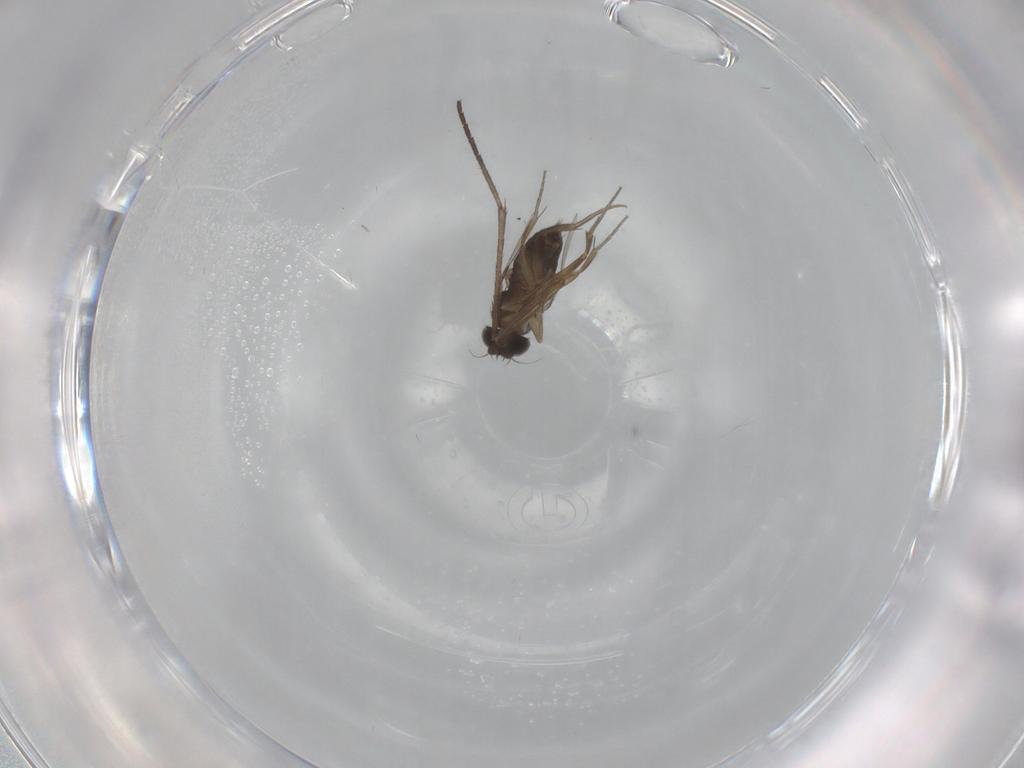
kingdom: Animalia
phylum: Arthropoda
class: Insecta
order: Diptera
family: Phoridae
